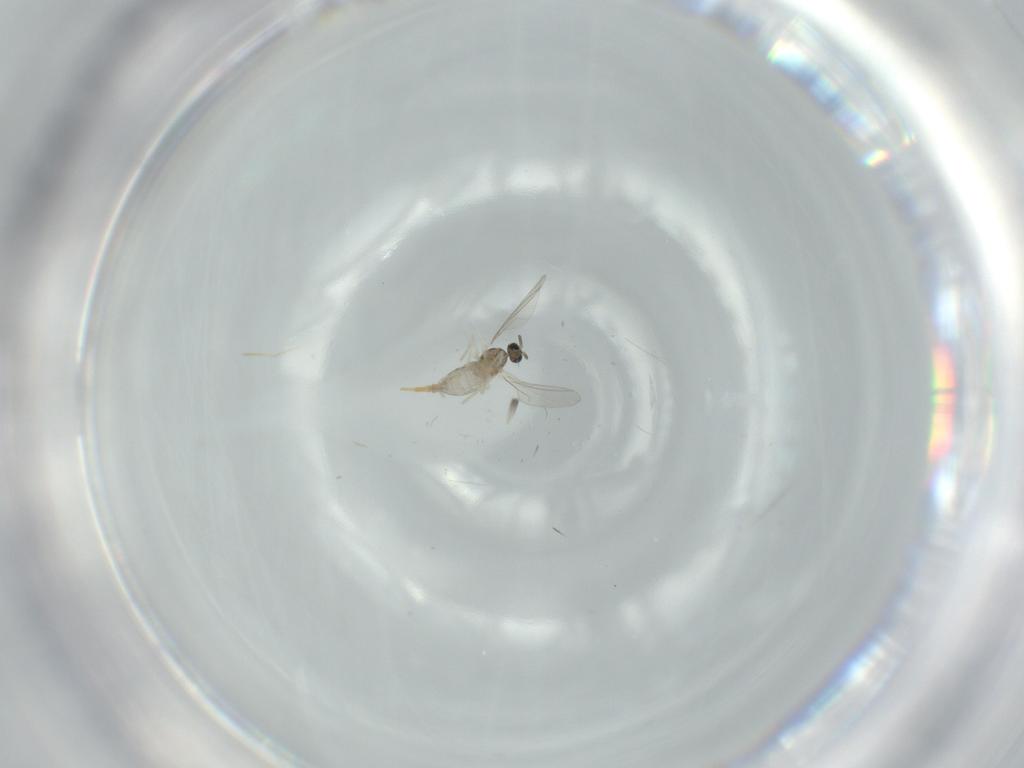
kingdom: Animalia
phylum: Arthropoda
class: Insecta
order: Diptera
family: Cecidomyiidae
